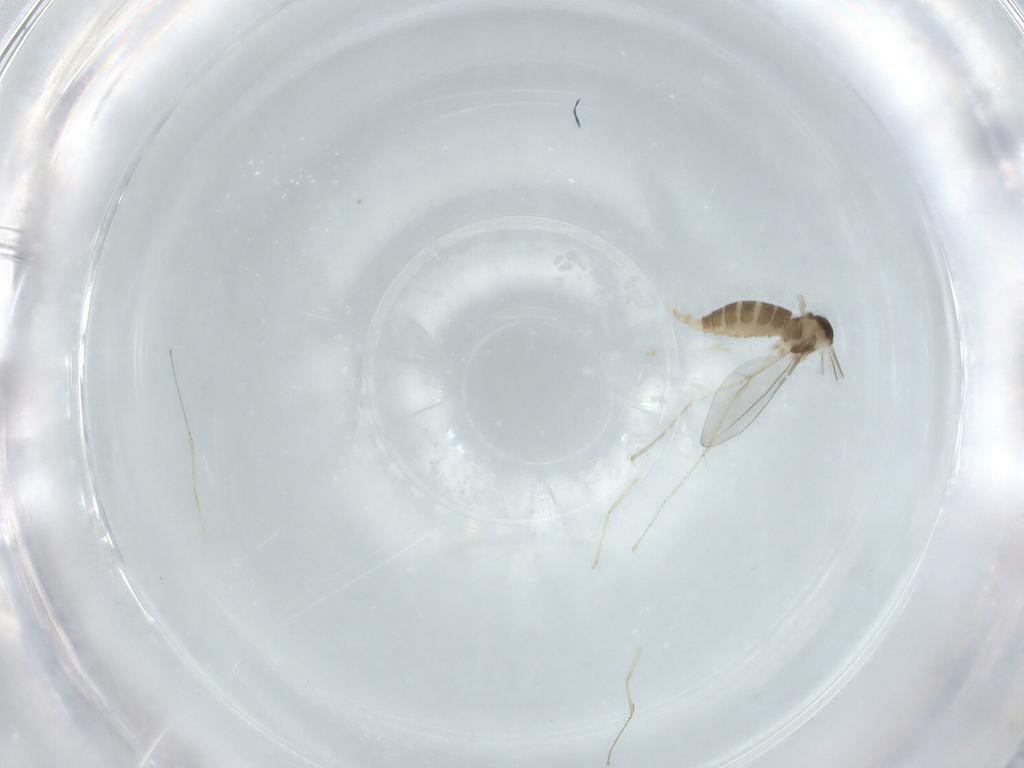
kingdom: Animalia
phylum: Arthropoda
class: Insecta
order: Diptera
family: Cecidomyiidae
